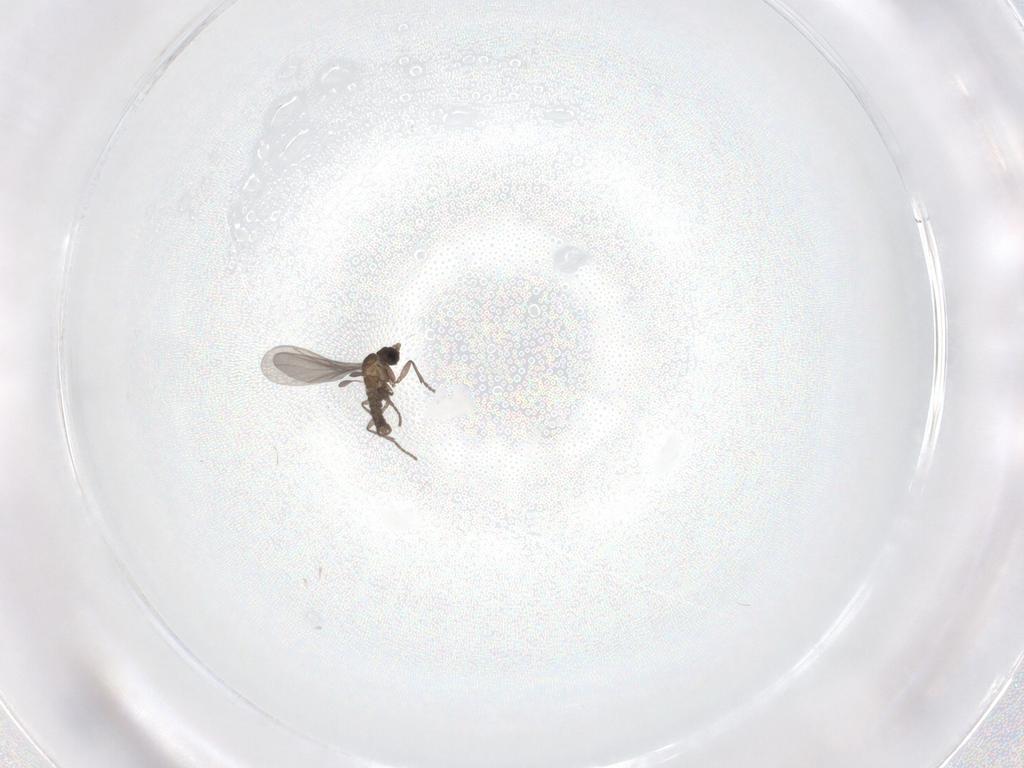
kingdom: Animalia
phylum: Arthropoda
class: Insecta
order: Diptera
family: Sciaridae
